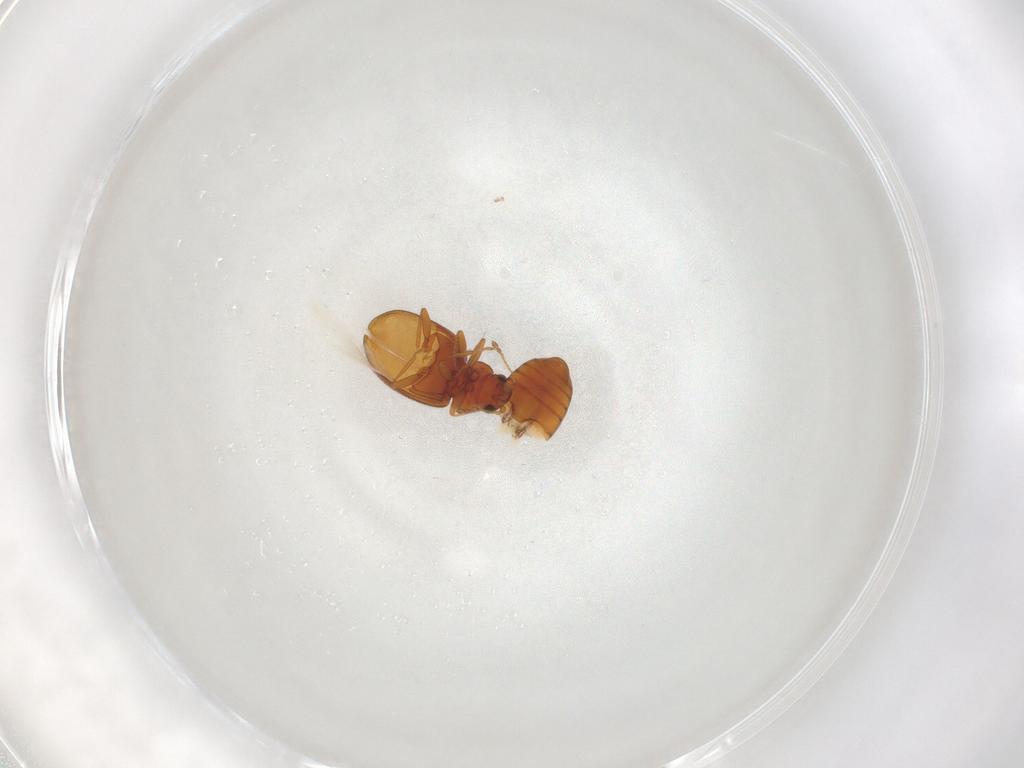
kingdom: Animalia
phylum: Arthropoda
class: Insecta
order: Coleoptera
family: Latridiidae
